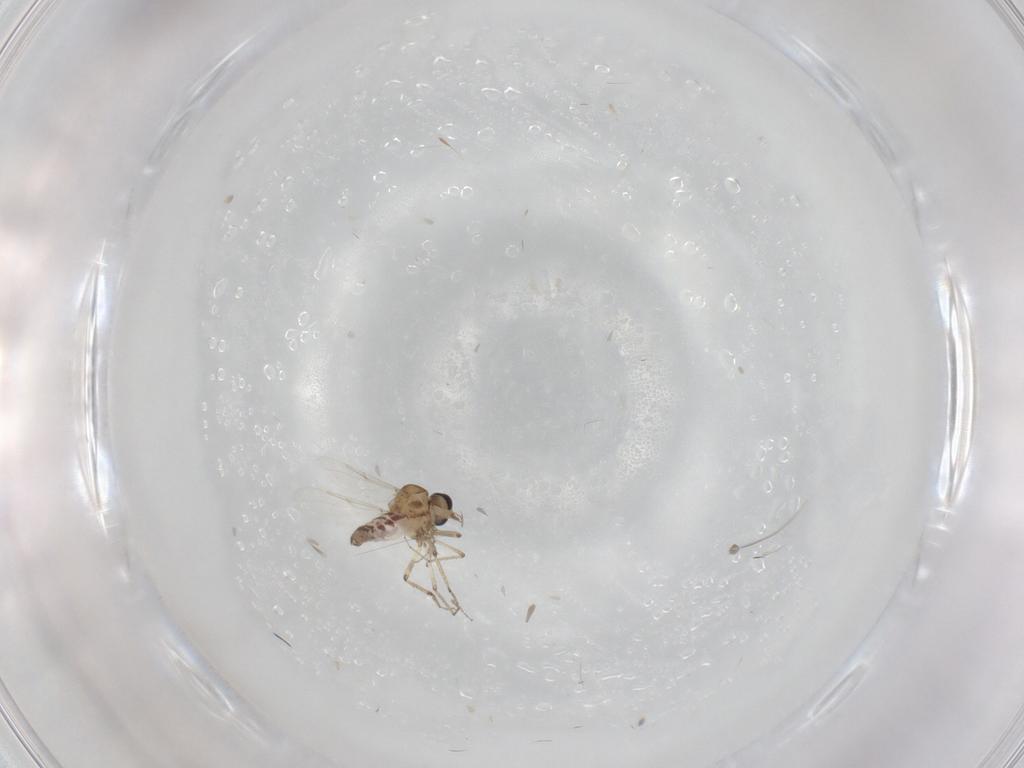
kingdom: Animalia
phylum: Arthropoda
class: Insecta
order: Diptera
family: Ceratopogonidae
